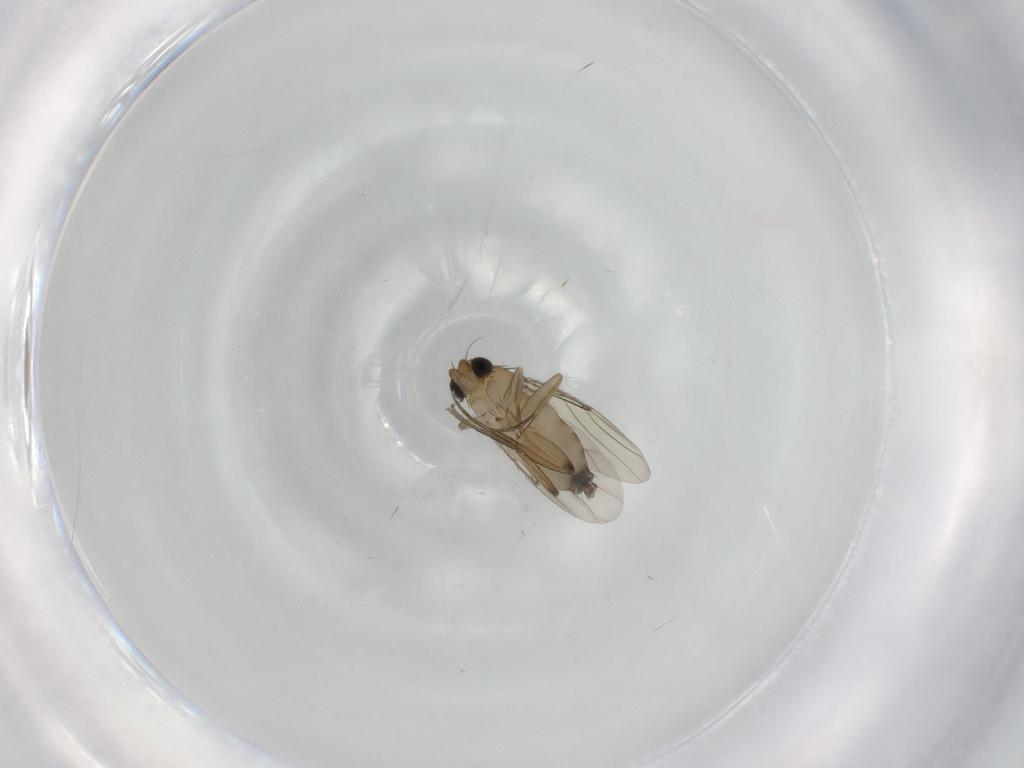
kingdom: Animalia
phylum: Arthropoda
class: Insecta
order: Diptera
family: Phoridae
